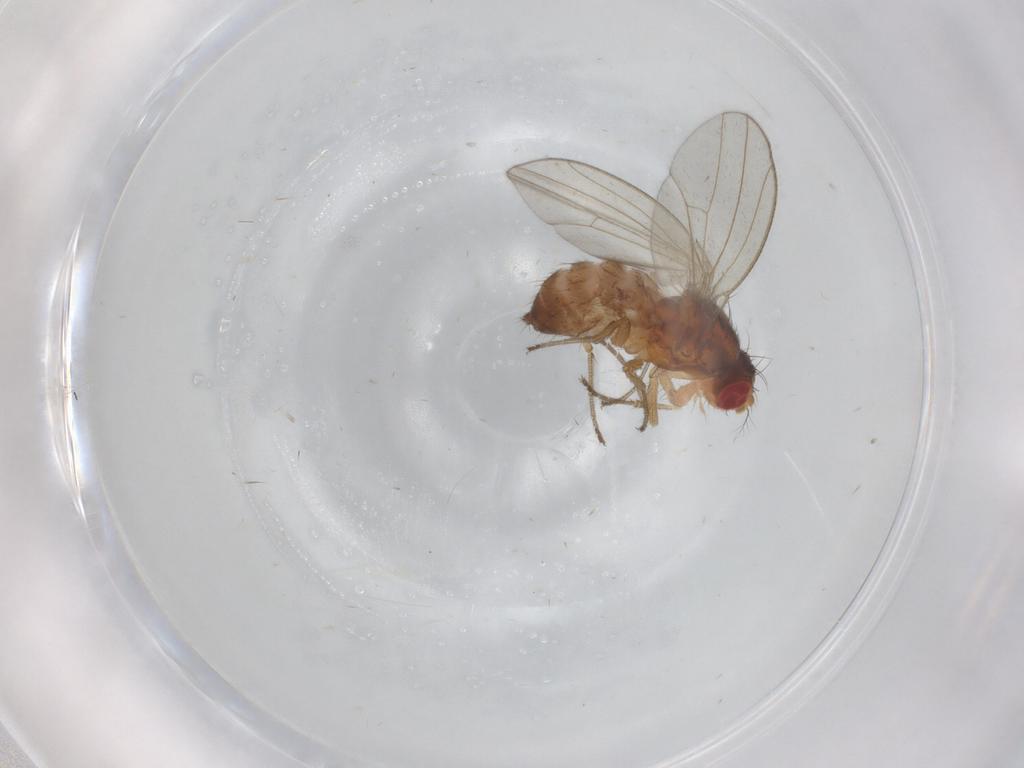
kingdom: Animalia
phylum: Arthropoda
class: Insecta
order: Diptera
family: Drosophilidae
